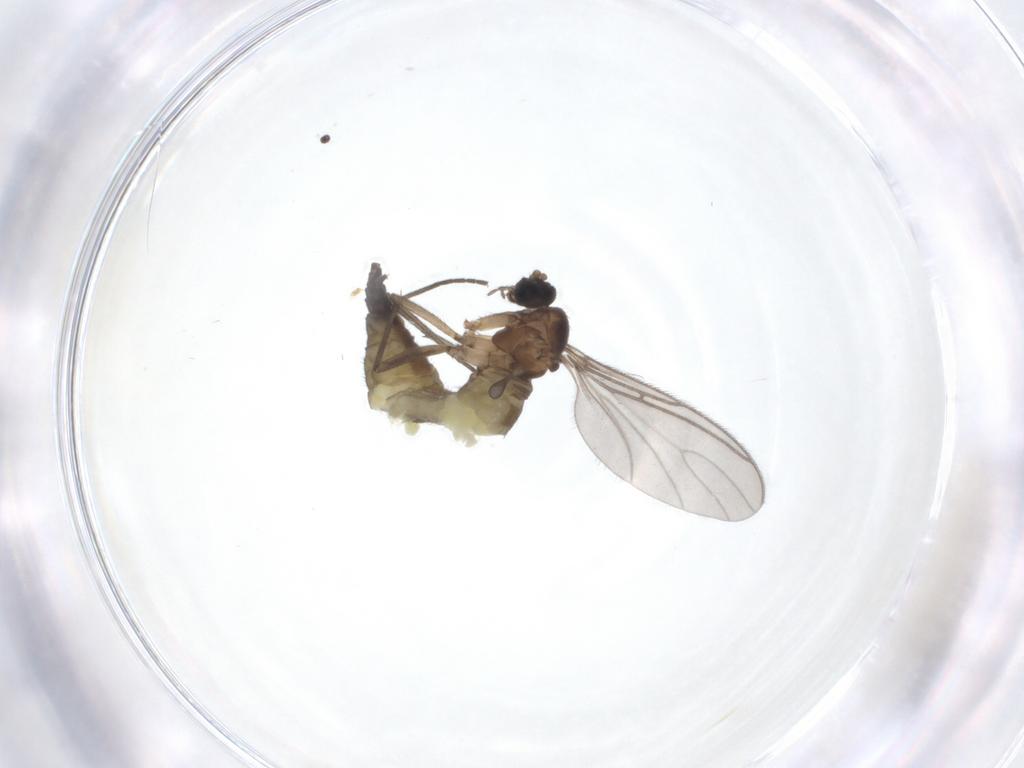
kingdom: Animalia
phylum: Arthropoda
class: Insecta
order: Diptera
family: Sciaridae
